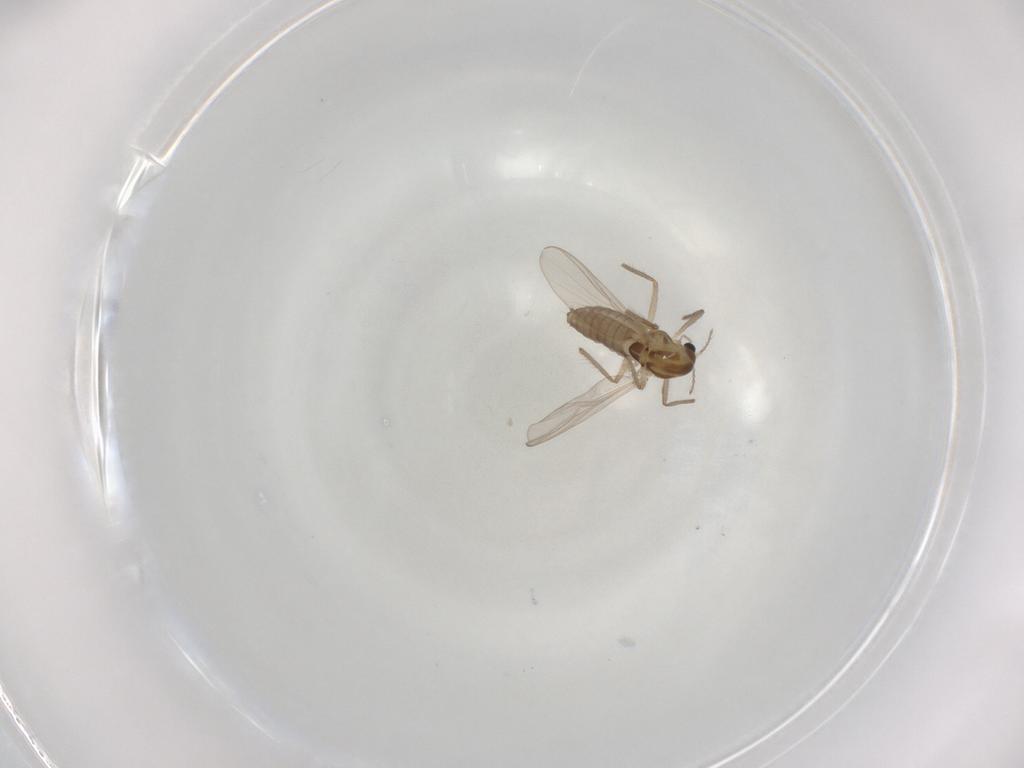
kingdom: Animalia
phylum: Arthropoda
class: Insecta
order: Diptera
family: Chironomidae
